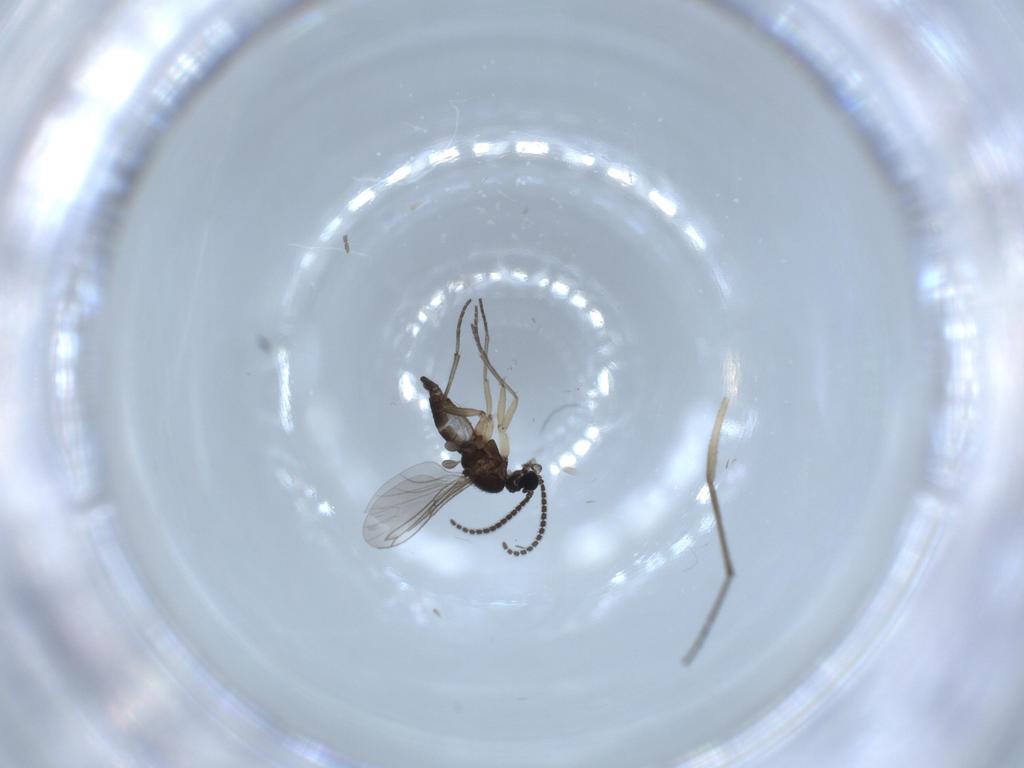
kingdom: Animalia
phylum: Arthropoda
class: Insecta
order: Diptera
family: Sciaridae
